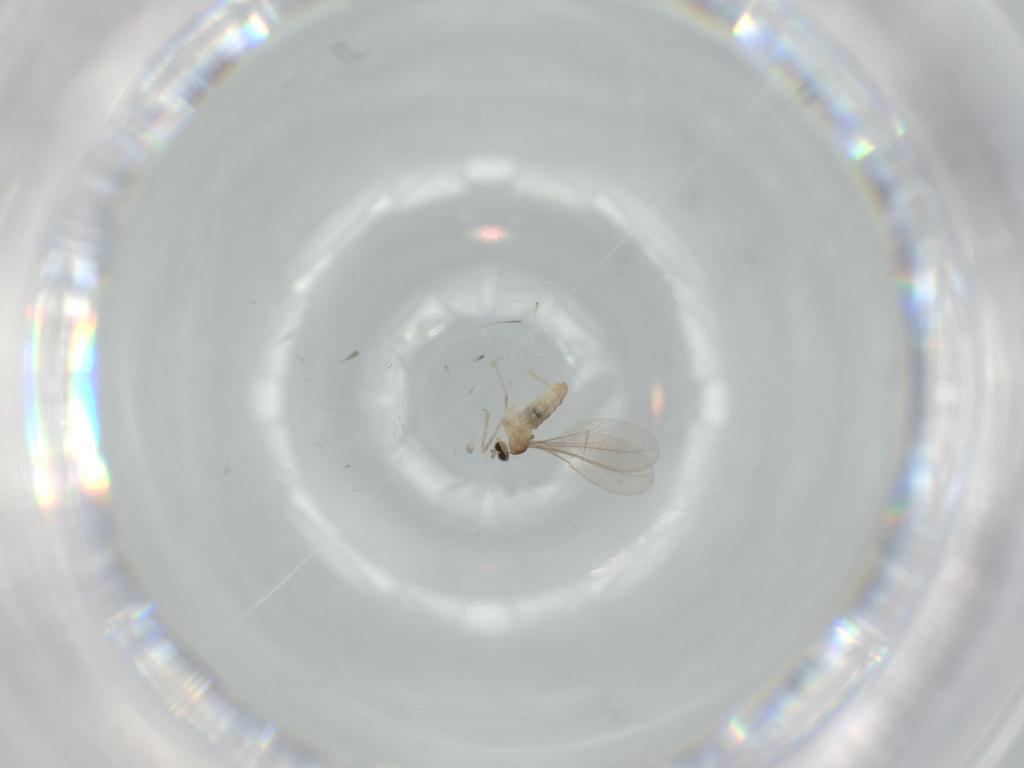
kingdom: Animalia
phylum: Arthropoda
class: Insecta
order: Diptera
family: Cecidomyiidae
